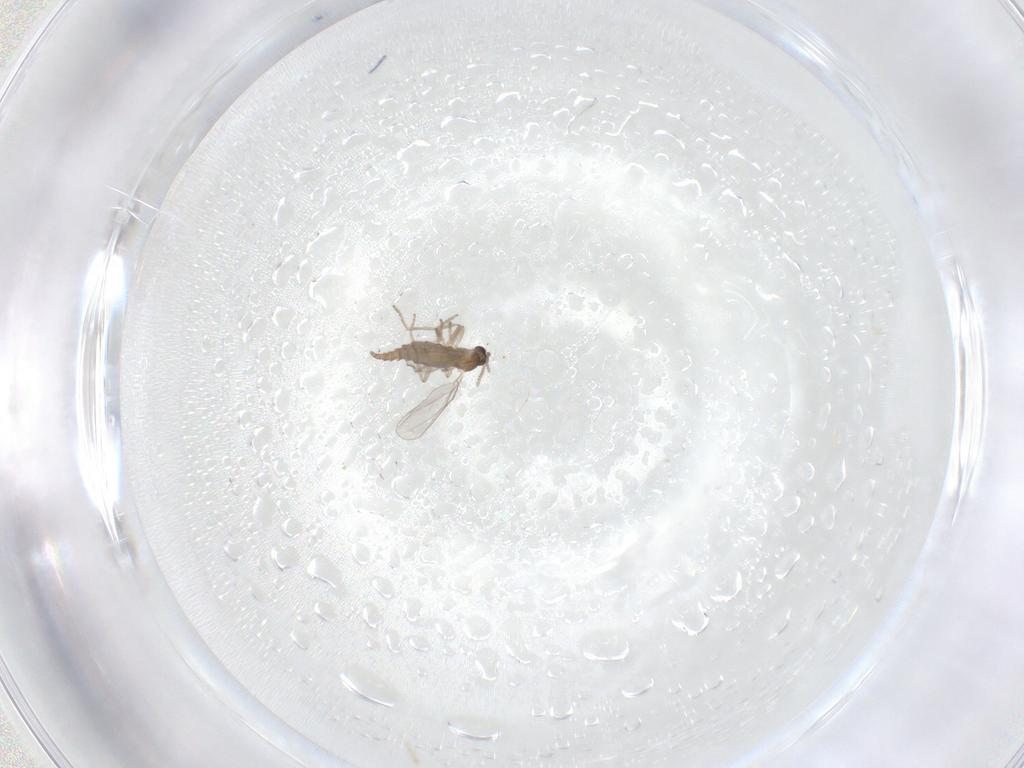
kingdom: Animalia
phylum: Arthropoda
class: Insecta
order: Diptera
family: Cecidomyiidae
